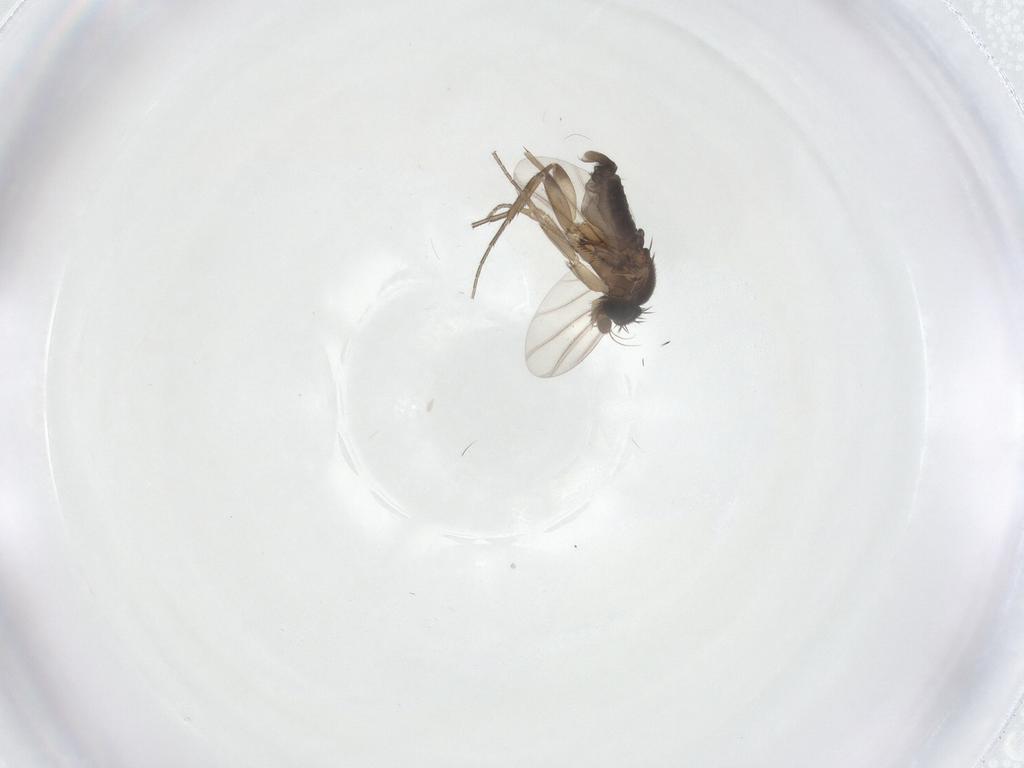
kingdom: Animalia
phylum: Arthropoda
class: Insecta
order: Diptera
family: Phoridae
